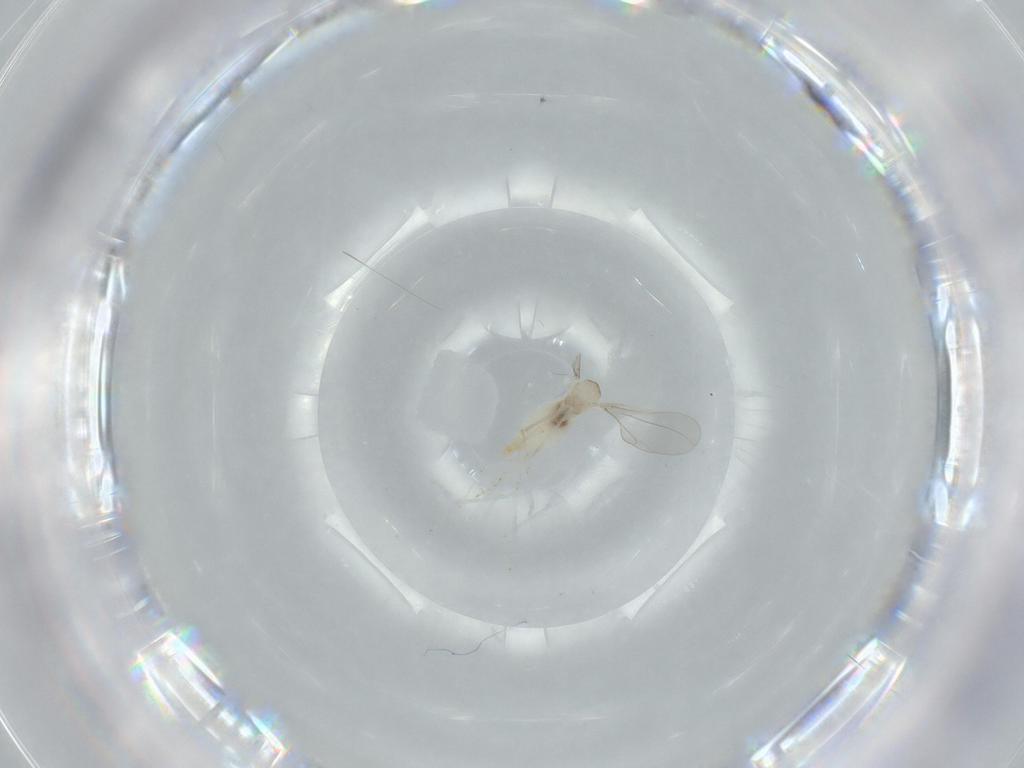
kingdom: Animalia
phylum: Arthropoda
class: Insecta
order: Diptera
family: Cecidomyiidae
